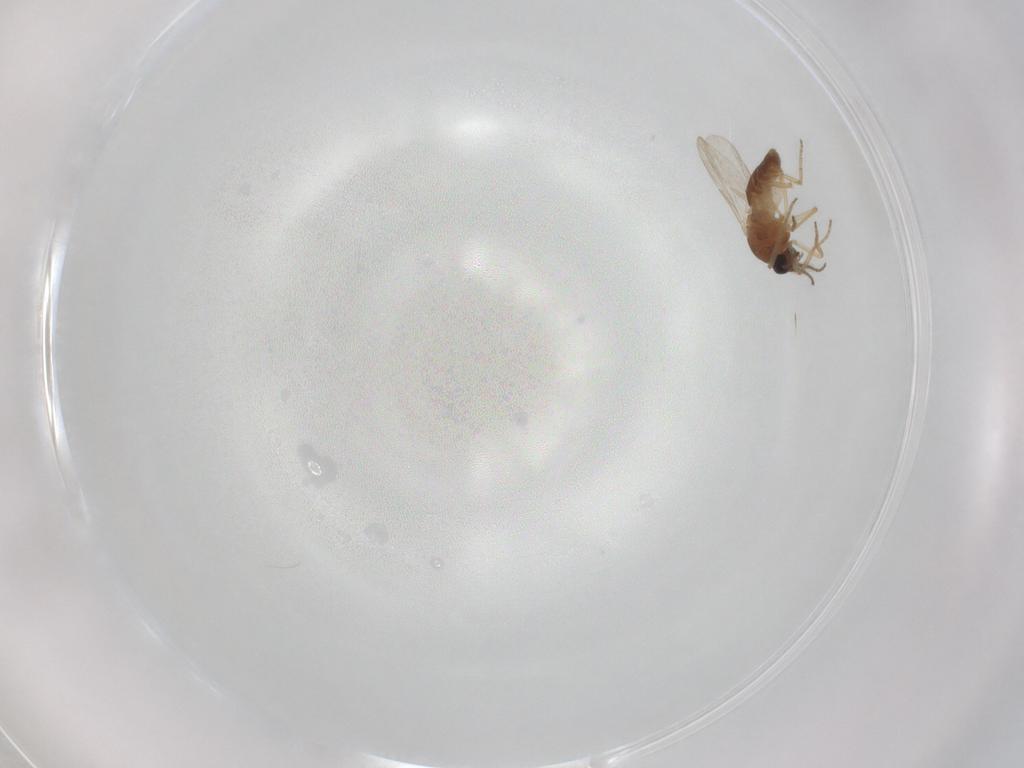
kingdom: Animalia
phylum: Arthropoda
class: Insecta
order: Diptera
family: Ceratopogonidae
